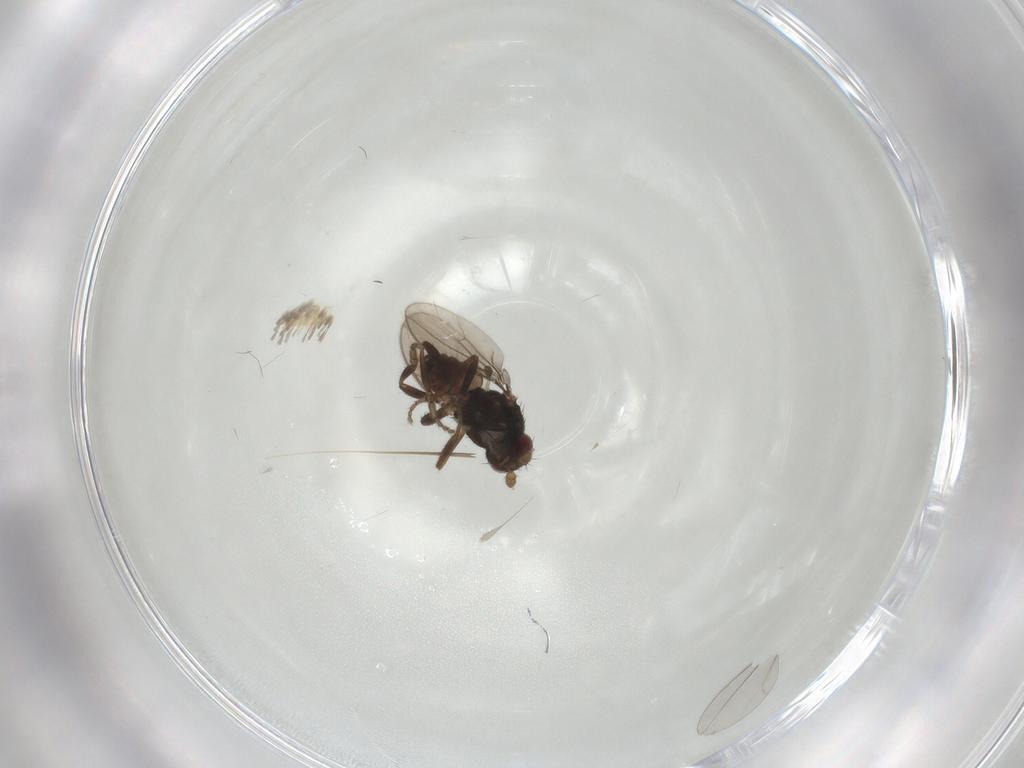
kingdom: Animalia
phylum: Arthropoda
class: Insecta
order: Diptera
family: Sphaeroceridae
